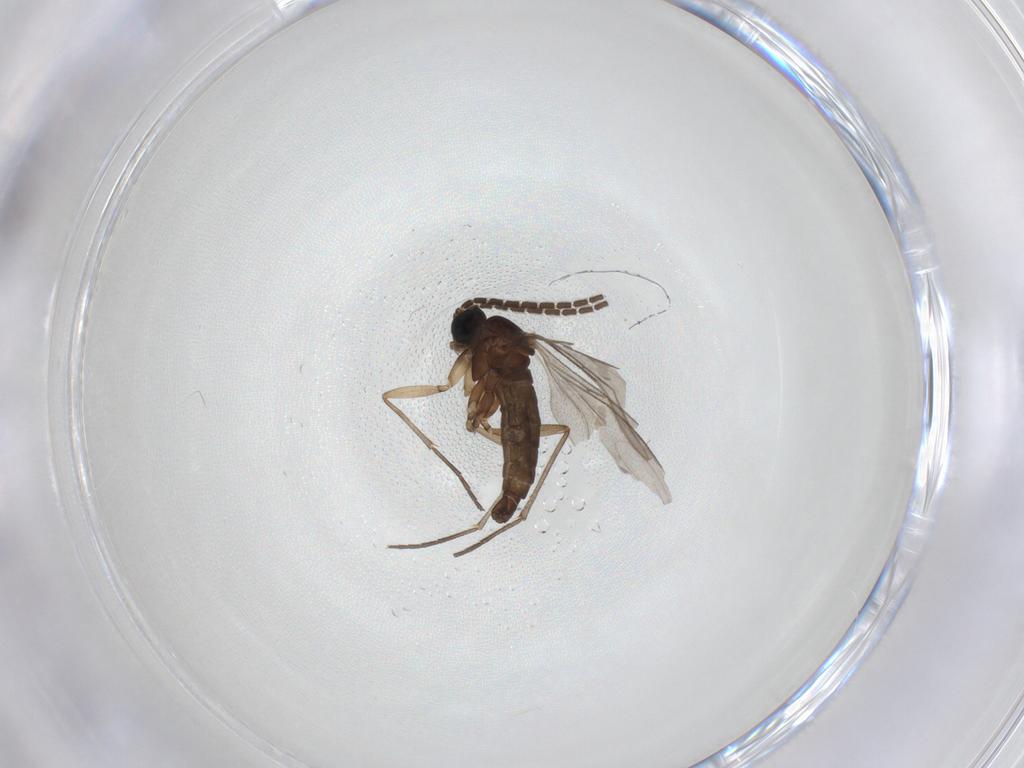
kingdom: Animalia
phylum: Arthropoda
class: Insecta
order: Diptera
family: Sciaridae
